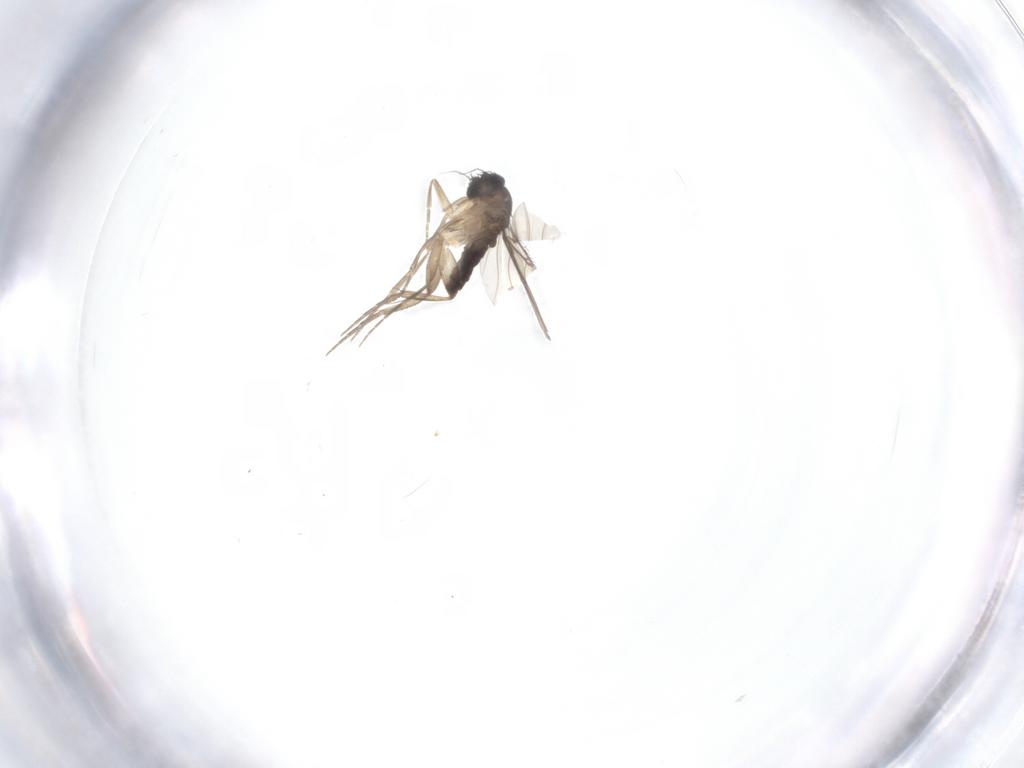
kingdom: Animalia
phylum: Arthropoda
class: Insecta
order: Diptera
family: Phoridae
